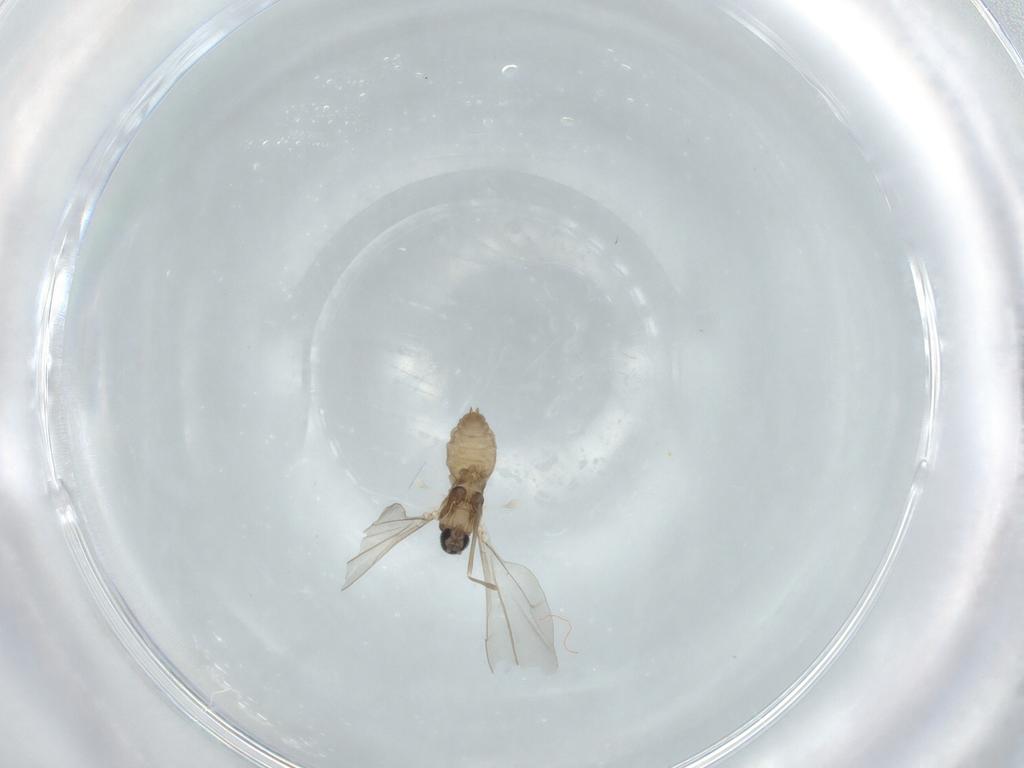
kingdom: Animalia
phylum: Arthropoda
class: Insecta
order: Diptera
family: Cecidomyiidae
